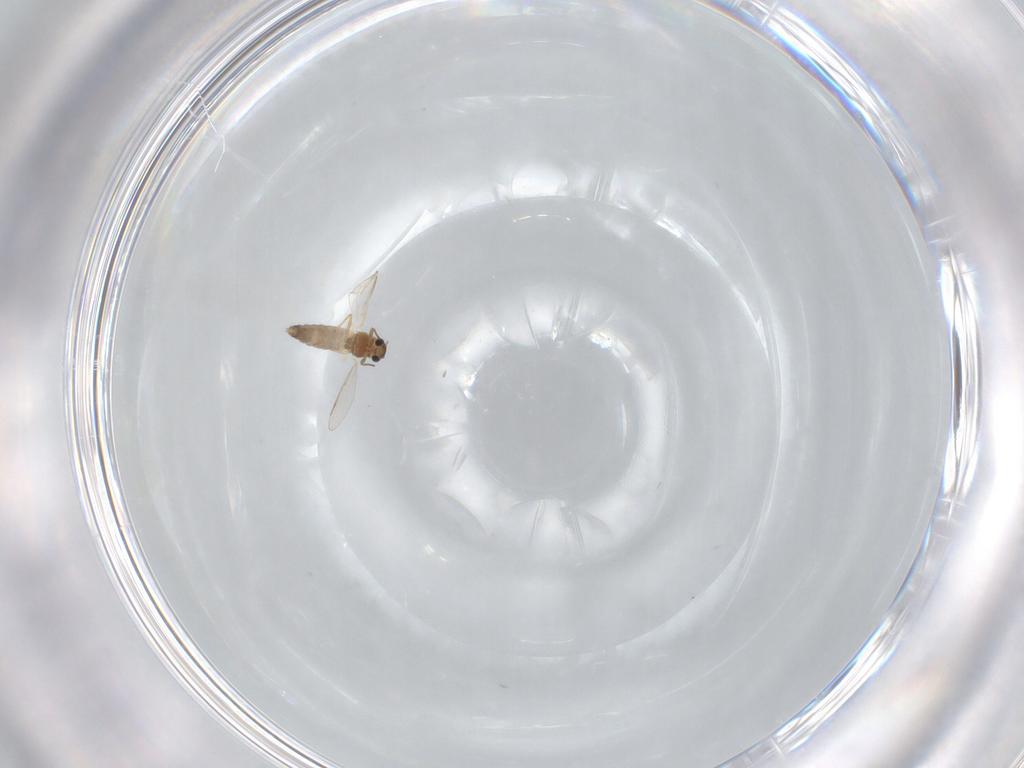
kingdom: Animalia
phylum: Arthropoda
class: Insecta
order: Diptera
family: Chironomidae
